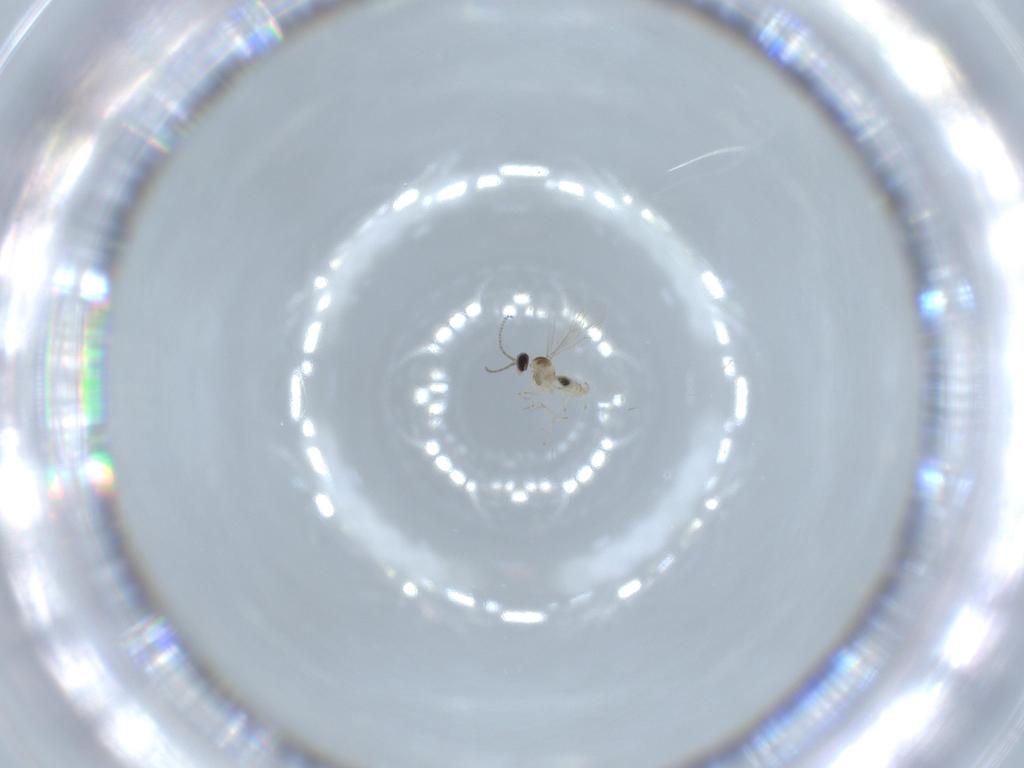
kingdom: Animalia
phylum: Arthropoda
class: Insecta
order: Diptera
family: Cecidomyiidae
